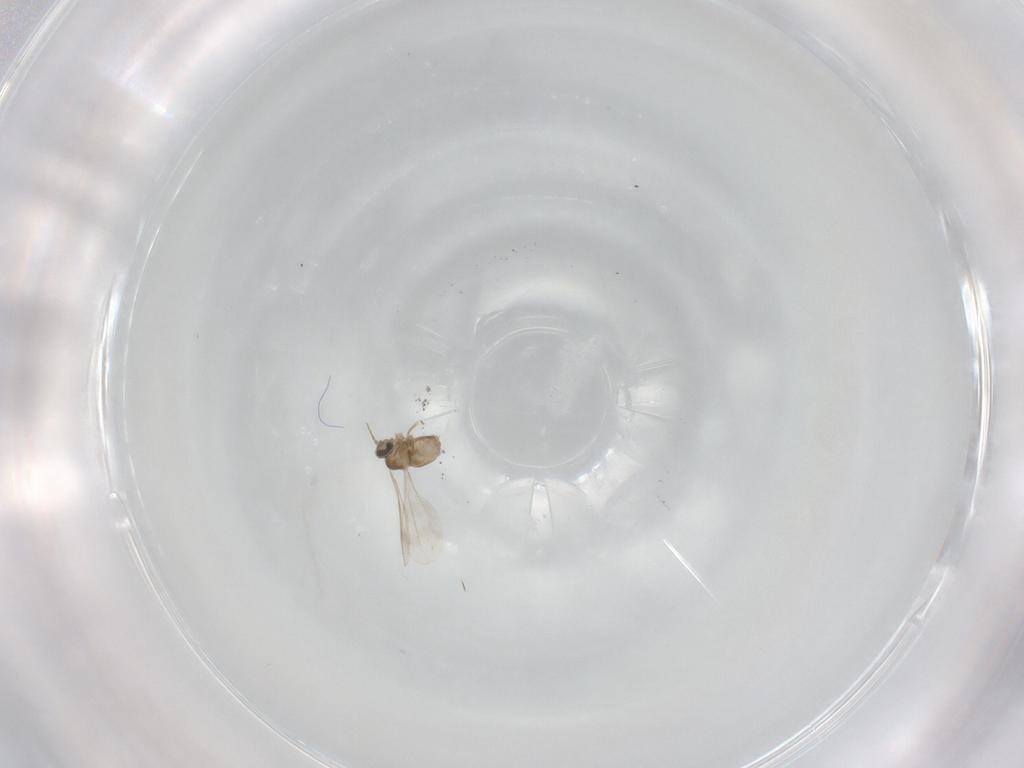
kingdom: Animalia
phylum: Arthropoda
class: Insecta
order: Diptera
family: Cecidomyiidae
